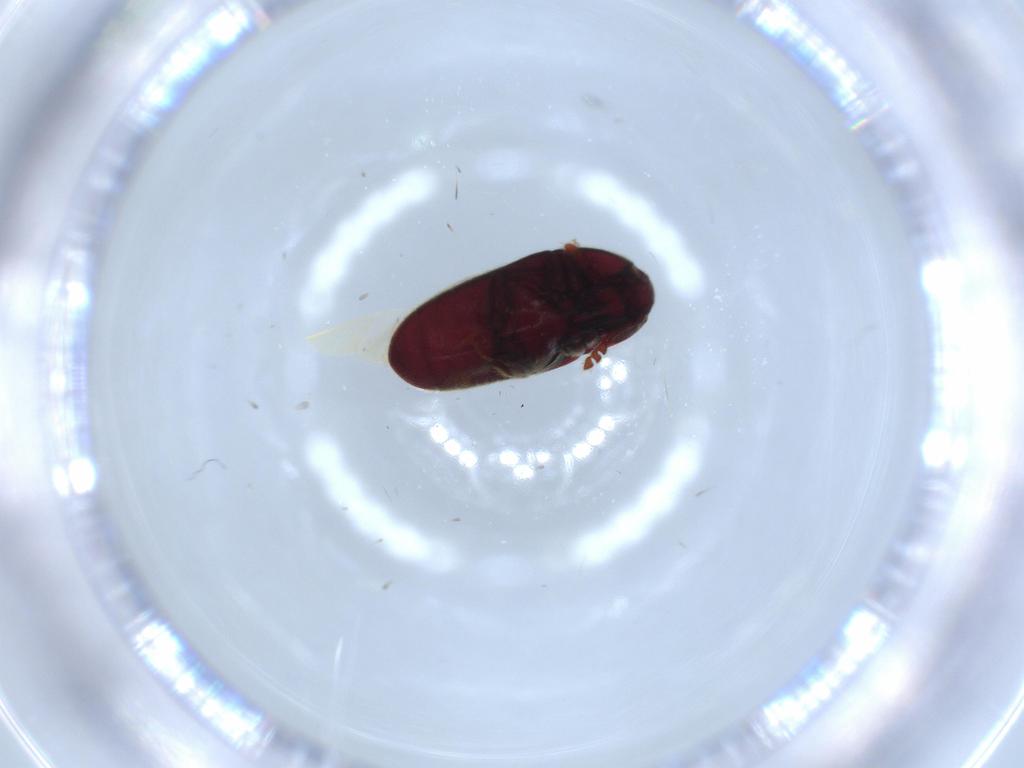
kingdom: Animalia
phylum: Arthropoda
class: Insecta
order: Coleoptera
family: Throscidae
